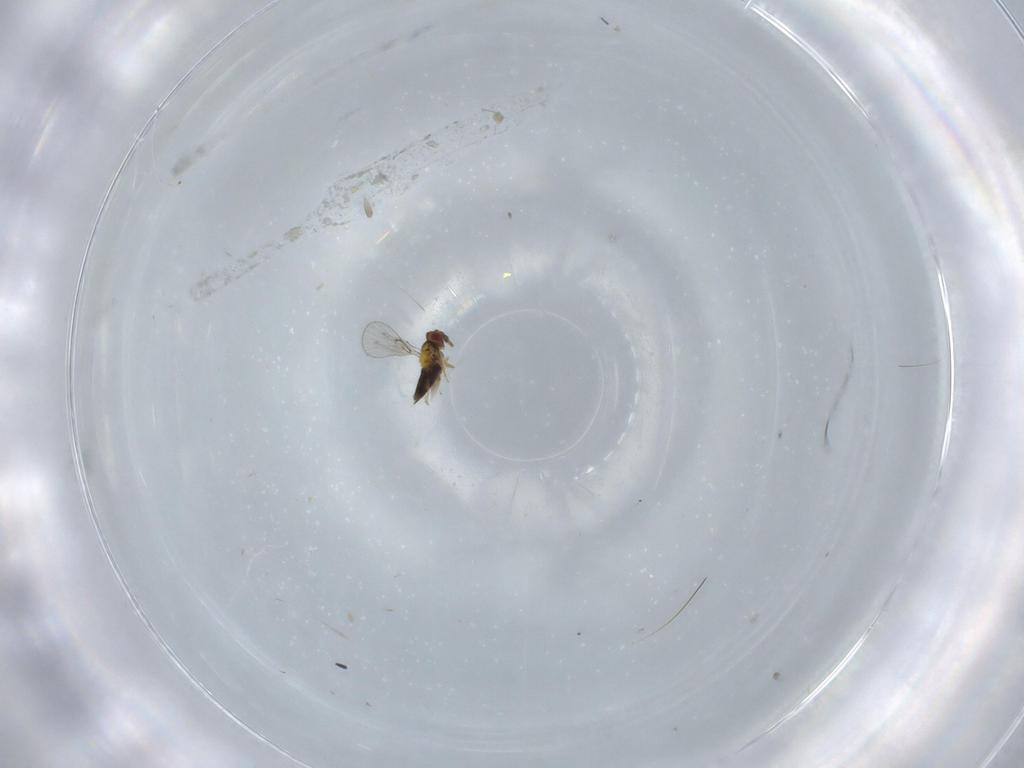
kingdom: Animalia
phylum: Arthropoda
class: Insecta
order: Hymenoptera
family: Trichogrammatidae
